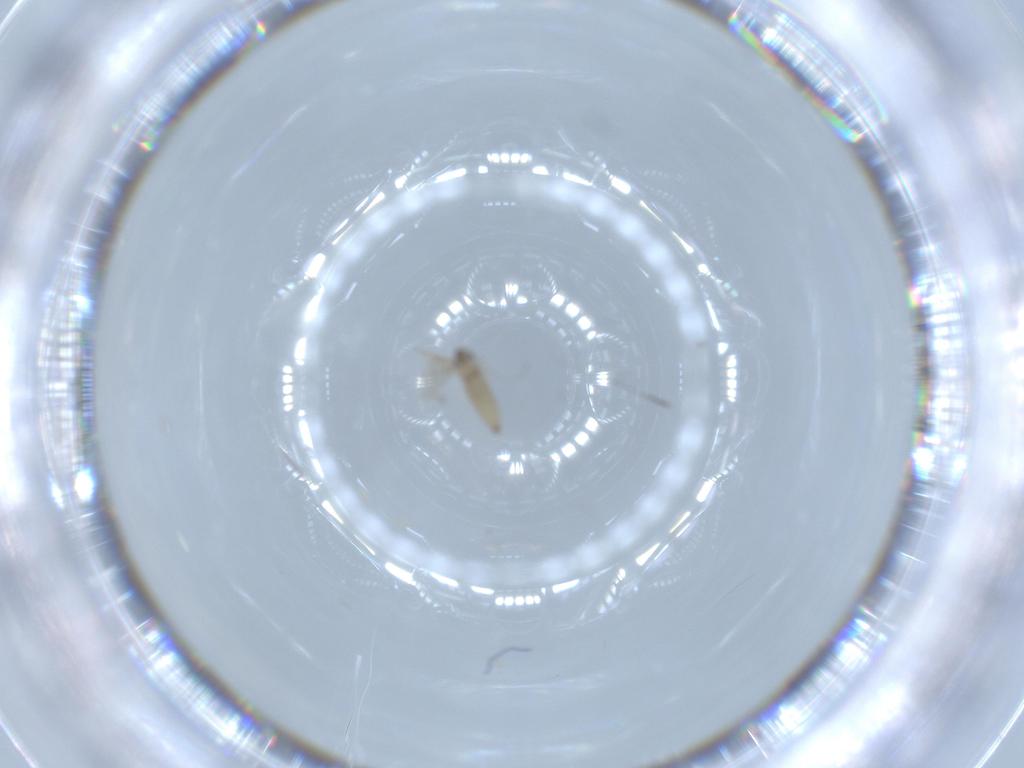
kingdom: Animalia
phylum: Arthropoda
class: Insecta
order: Diptera
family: Cecidomyiidae
